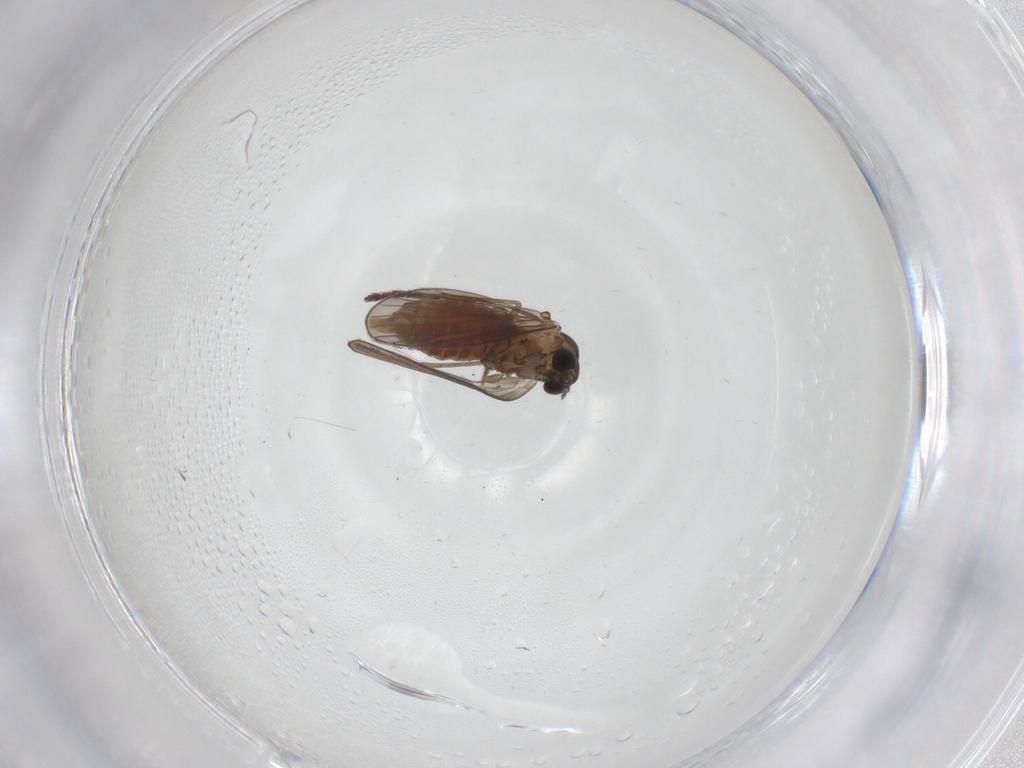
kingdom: Animalia
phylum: Arthropoda
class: Insecta
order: Diptera
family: Psychodidae
